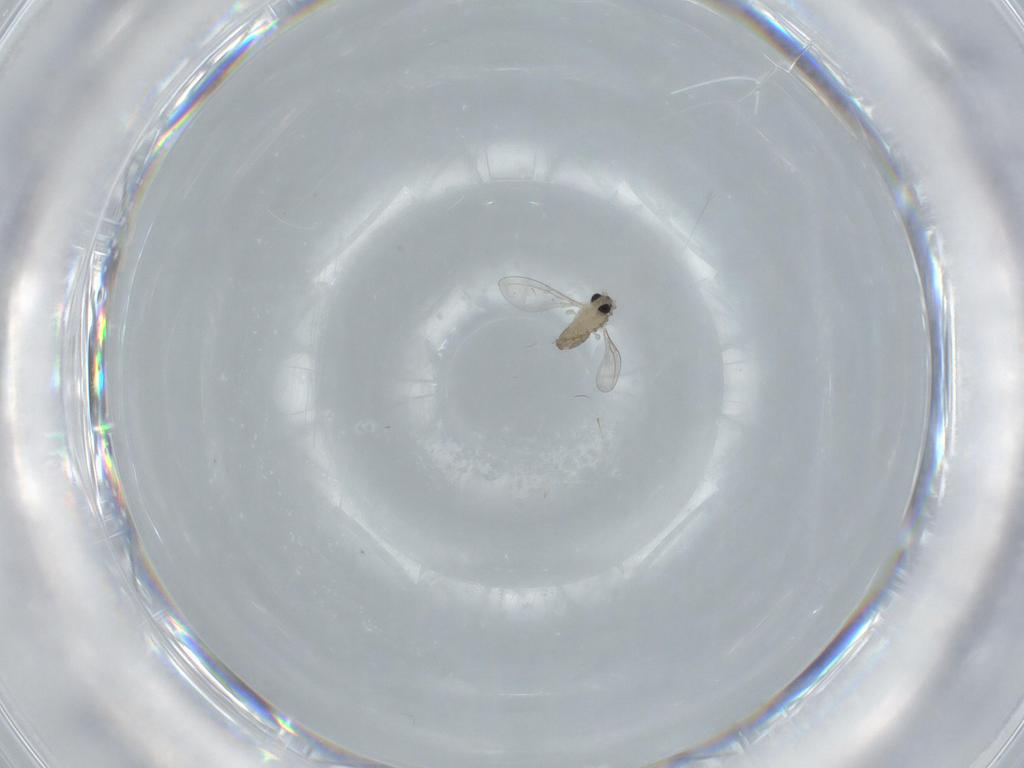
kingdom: Animalia
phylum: Arthropoda
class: Insecta
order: Diptera
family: Cecidomyiidae
